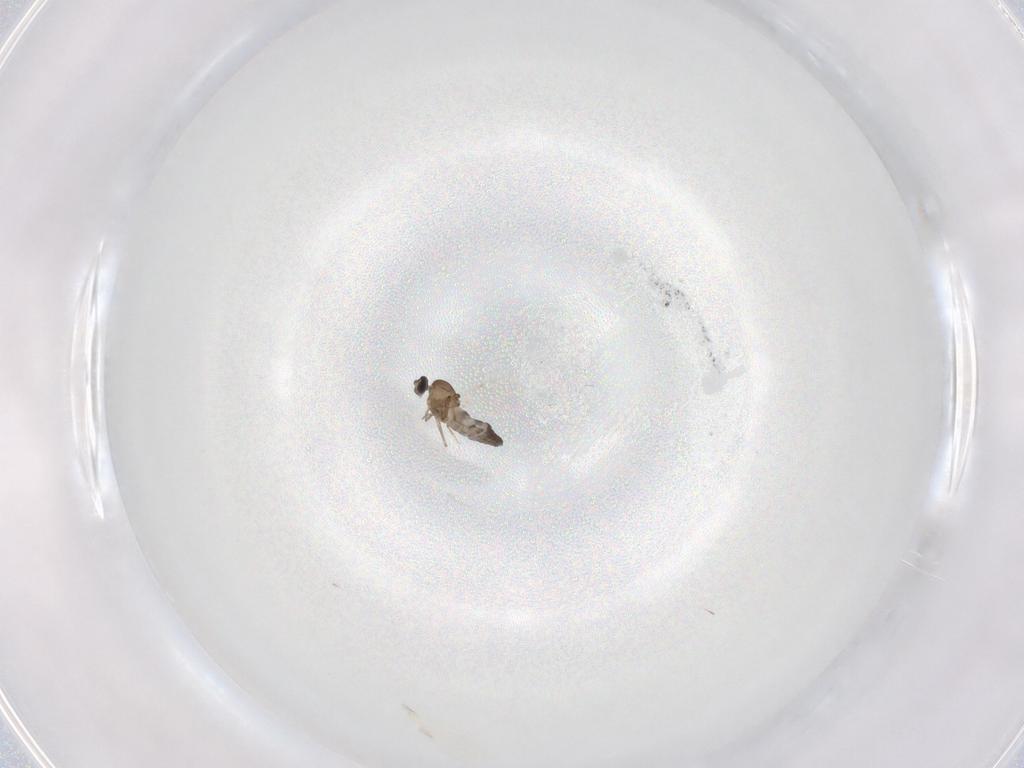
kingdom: Animalia
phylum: Arthropoda
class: Insecta
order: Diptera
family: Ceratopogonidae
